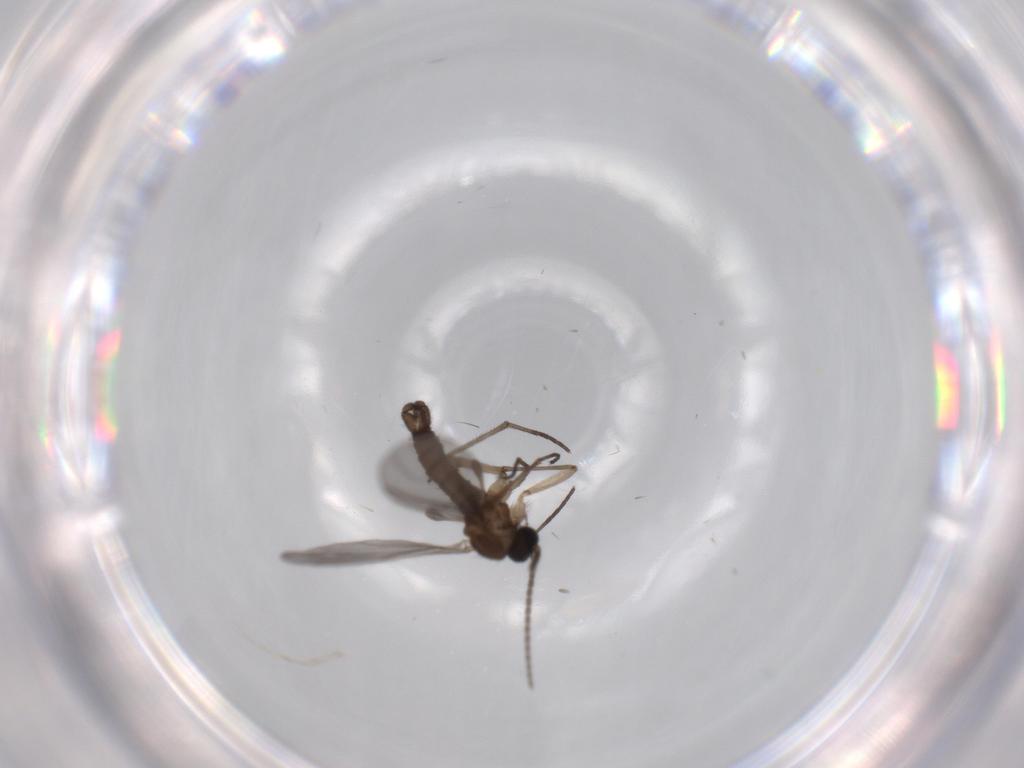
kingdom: Animalia
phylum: Arthropoda
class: Insecta
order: Diptera
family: Sciaridae
